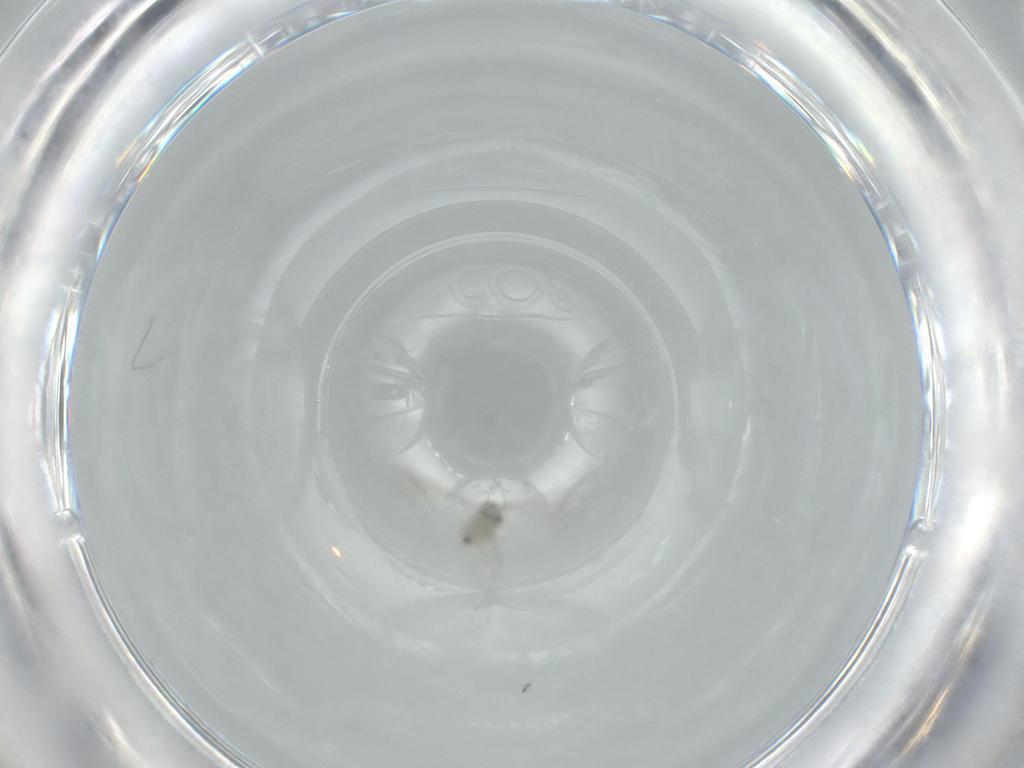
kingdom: Animalia
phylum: Arthropoda
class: Insecta
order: Diptera
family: Cecidomyiidae
